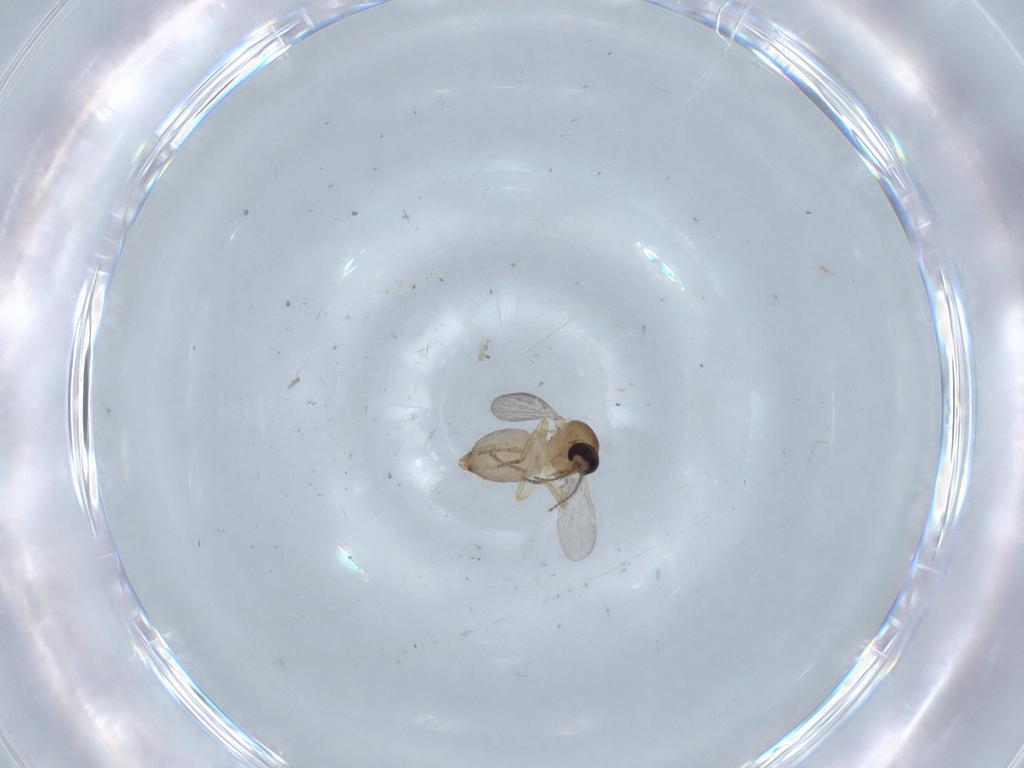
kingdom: Animalia
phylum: Arthropoda
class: Insecta
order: Diptera
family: Ceratopogonidae
